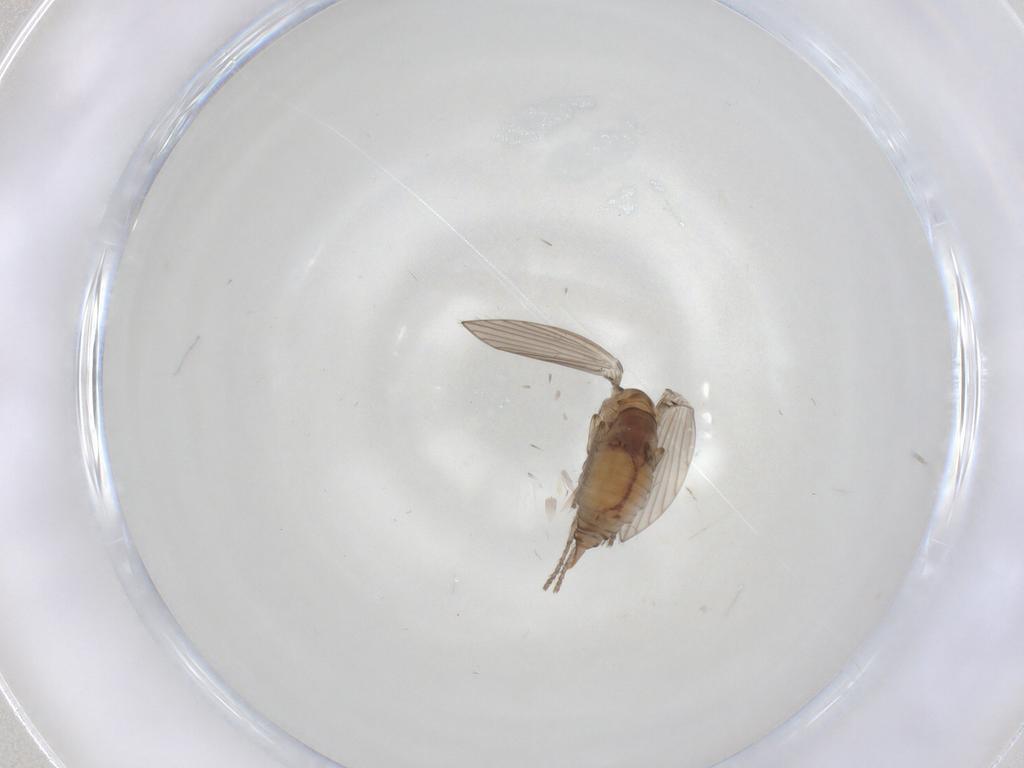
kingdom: Animalia
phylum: Arthropoda
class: Insecta
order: Diptera
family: Psychodidae
